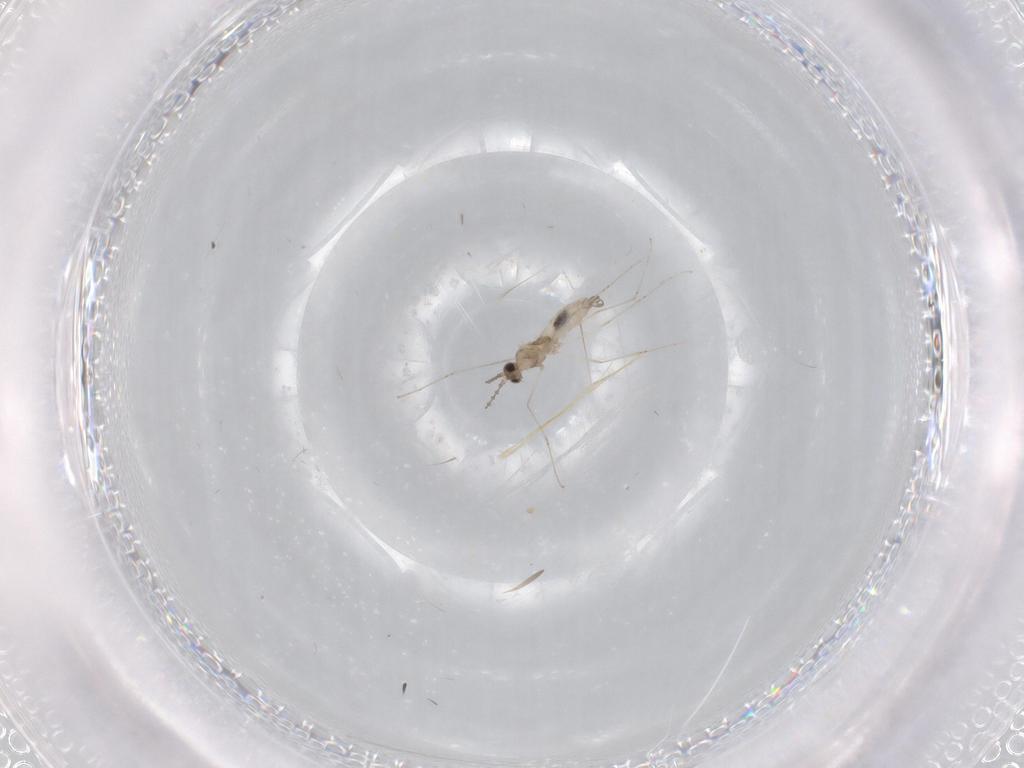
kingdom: Animalia
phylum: Arthropoda
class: Insecta
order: Diptera
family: Cecidomyiidae
